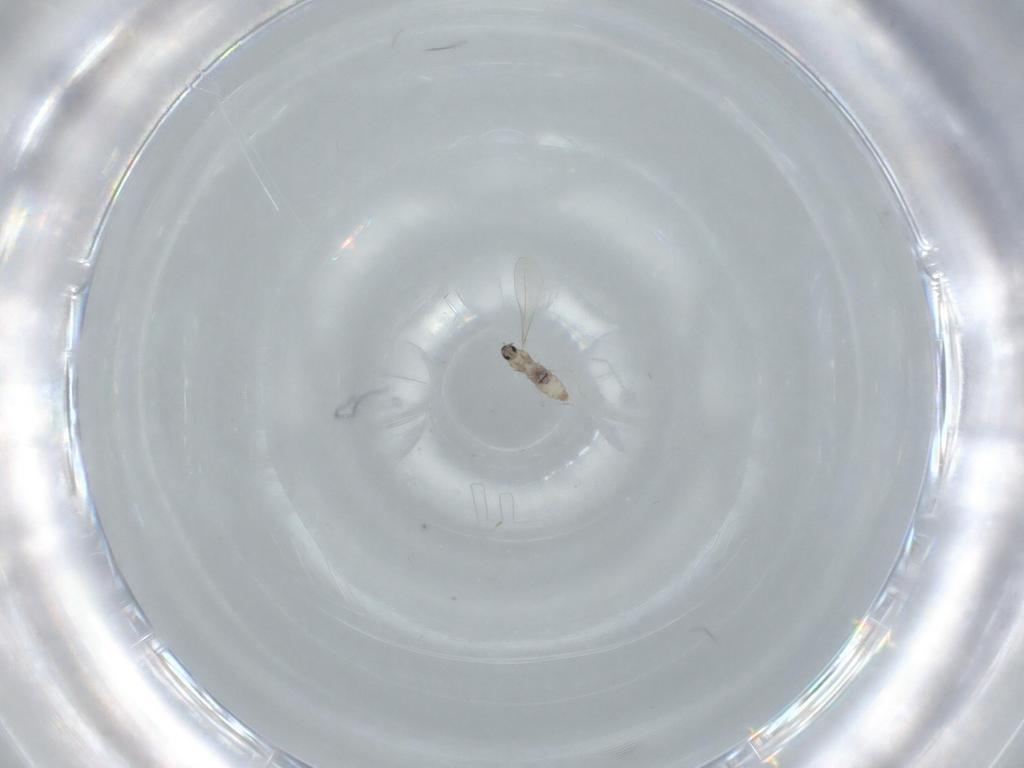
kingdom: Animalia
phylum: Arthropoda
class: Insecta
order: Diptera
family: Cecidomyiidae
